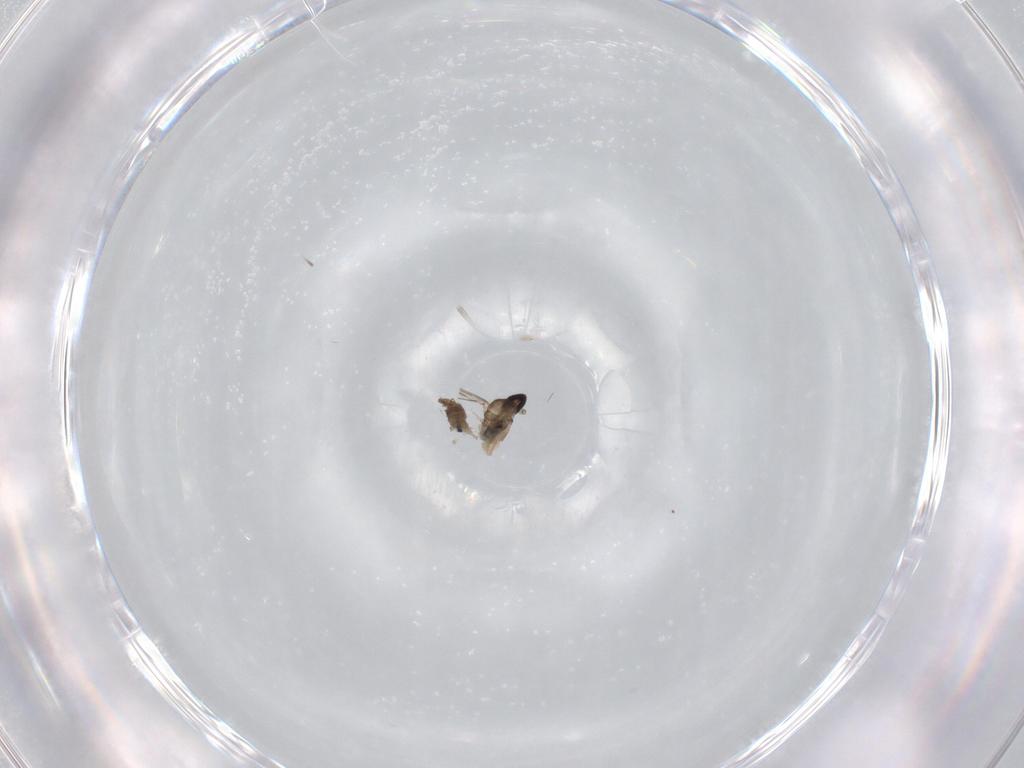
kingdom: Animalia
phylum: Arthropoda
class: Insecta
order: Diptera
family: Cecidomyiidae
